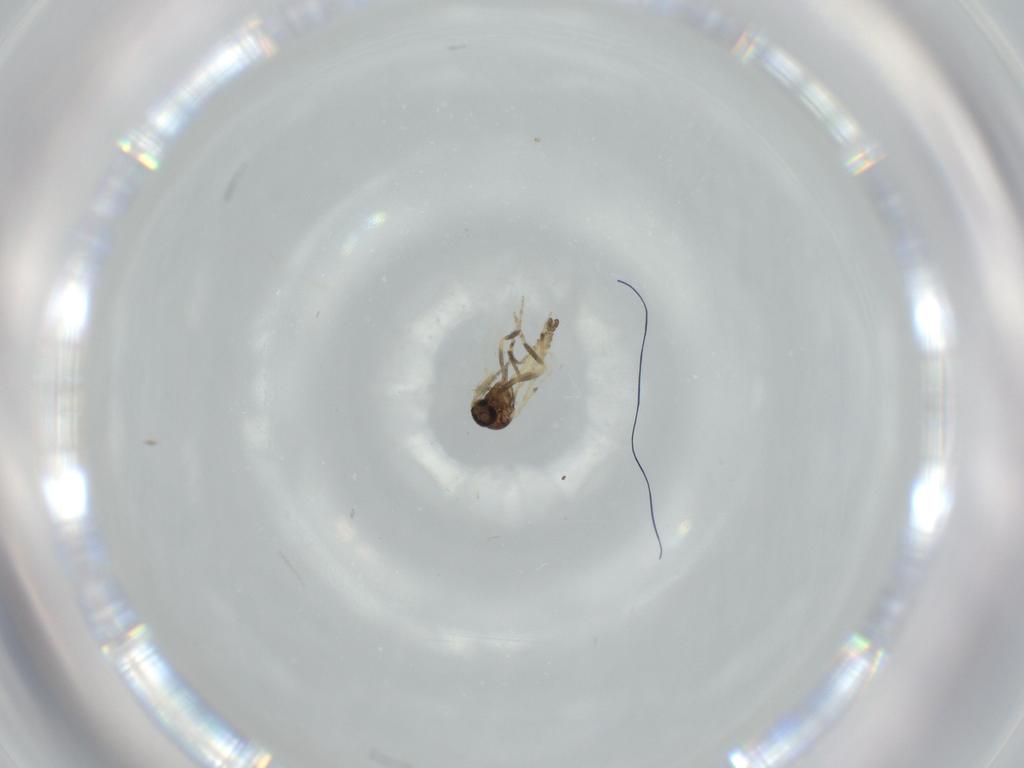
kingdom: Animalia
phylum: Arthropoda
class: Insecta
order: Diptera
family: Ceratopogonidae
